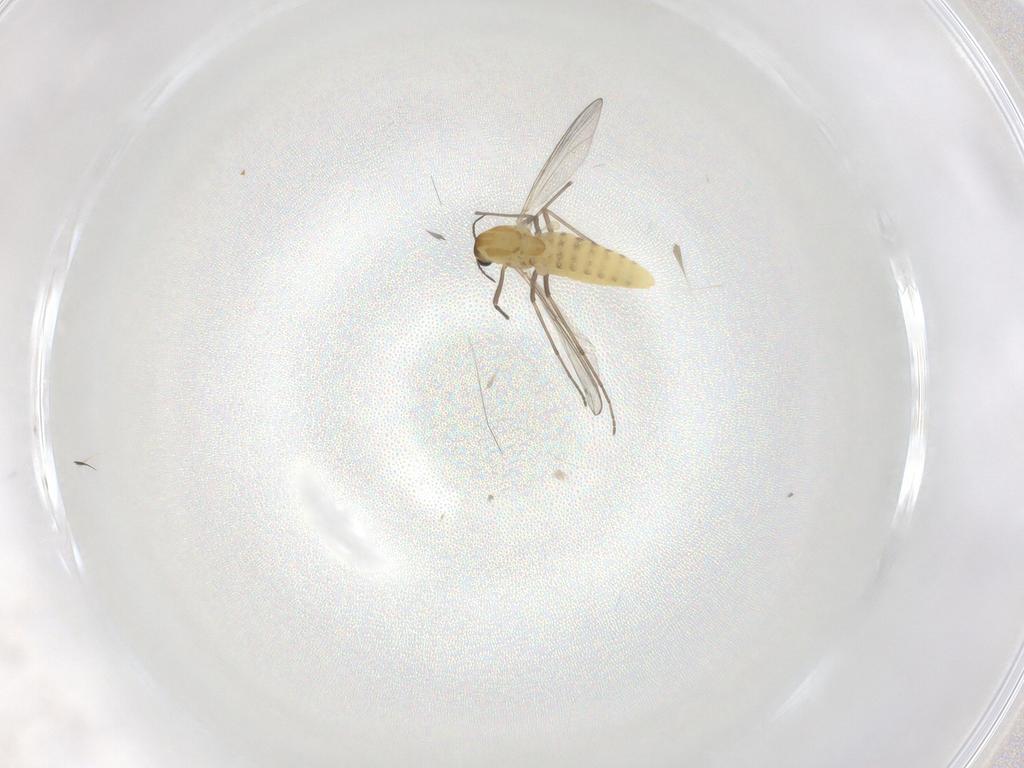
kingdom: Animalia
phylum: Arthropoda
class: Insecta
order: Diptera
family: Chironomidae
